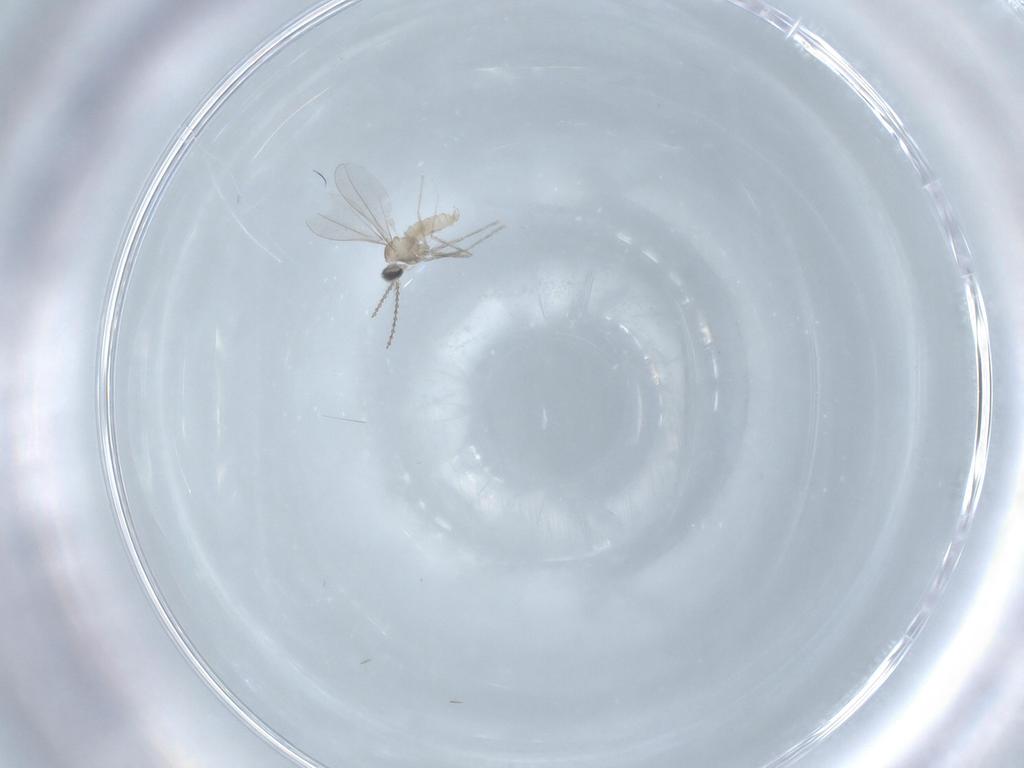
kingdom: Animalia
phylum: Arthropoda
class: Insecta
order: Diptera
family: Cecidomyiidae
